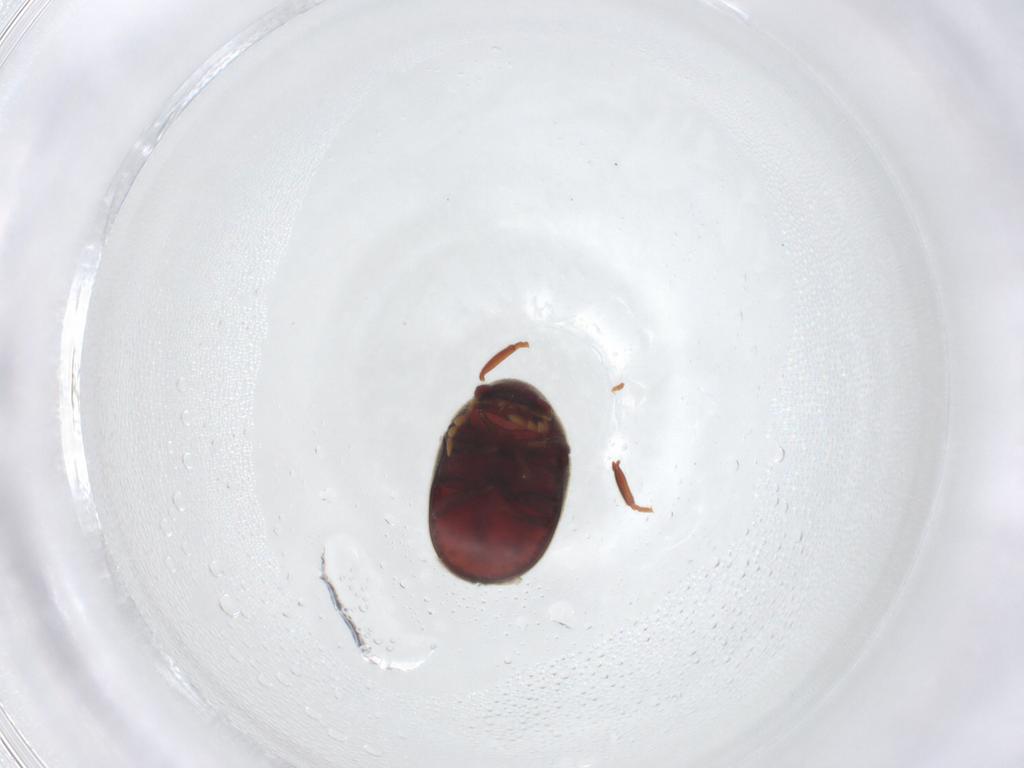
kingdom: Animalia
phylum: Arthropoda
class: Insecta
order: Coleoptera
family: Ptinidae
